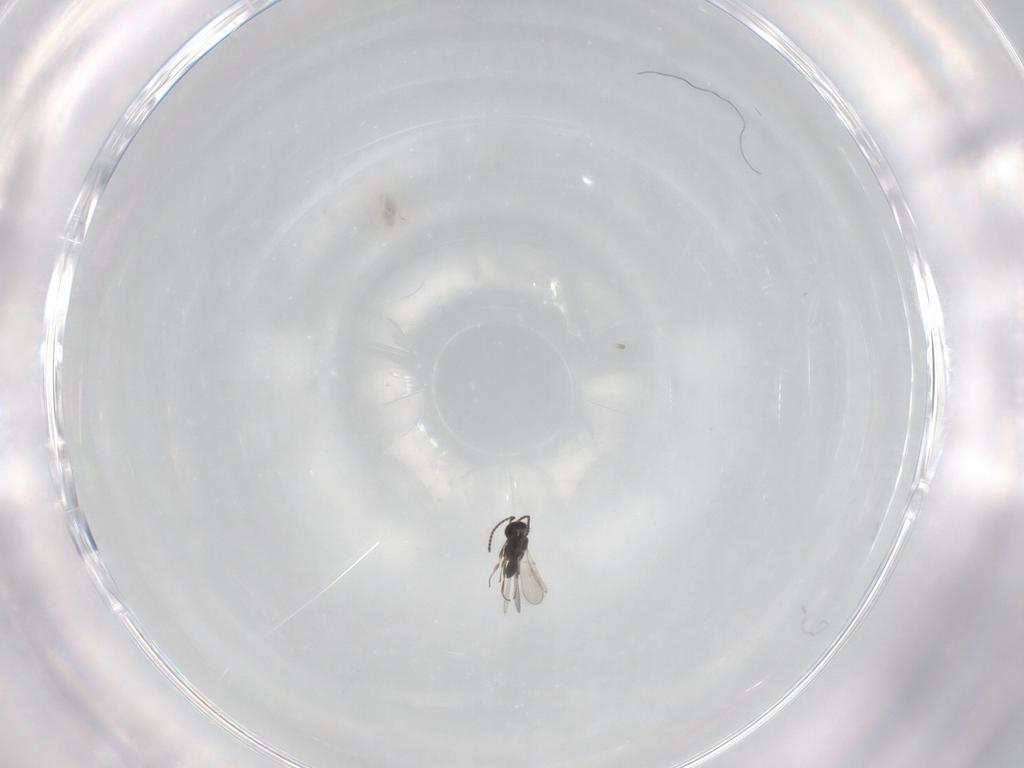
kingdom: Animalia
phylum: Arthropoda
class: Insecta
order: Hymenoptera
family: Scelionidae
